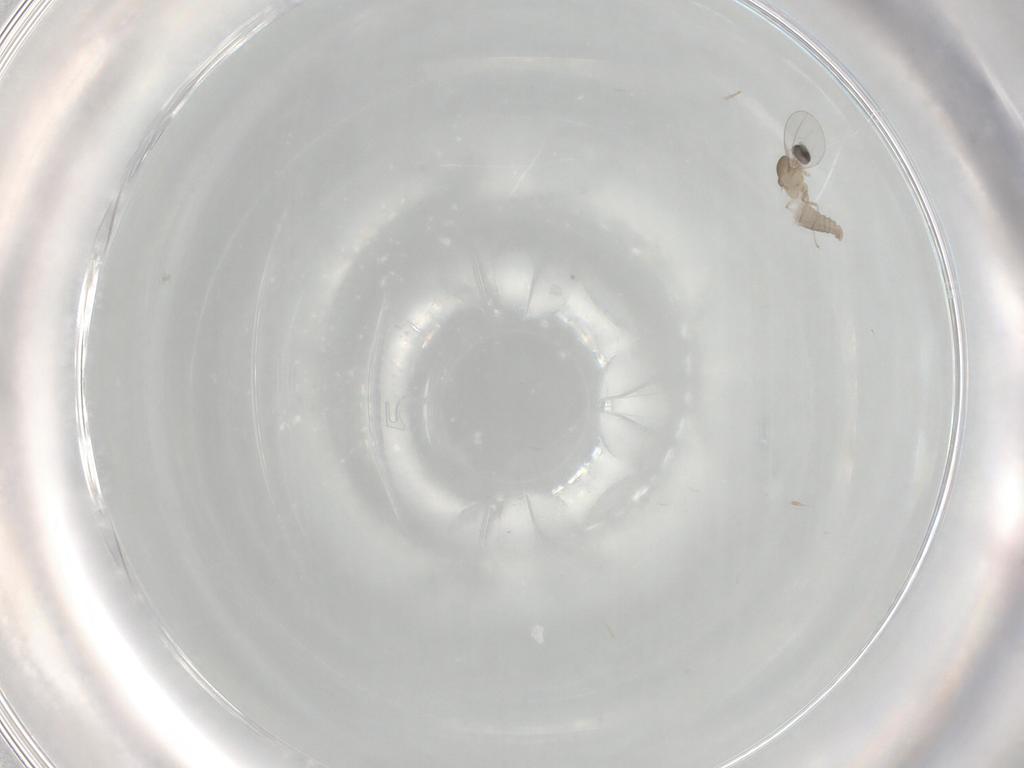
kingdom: Animalia
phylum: Arthropoda
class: Insecta
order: Diptera
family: Cecidomyiidae
